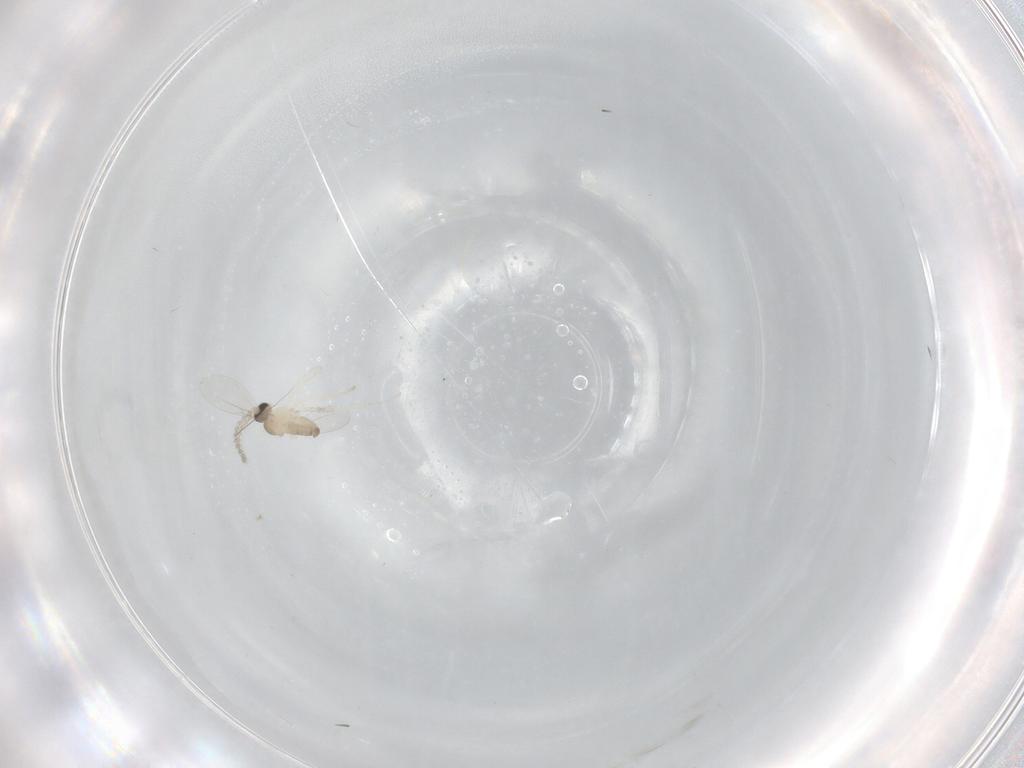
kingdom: Animalia
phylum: Arthropoda
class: Insecta
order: Diptera
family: Cecidomyiidae
